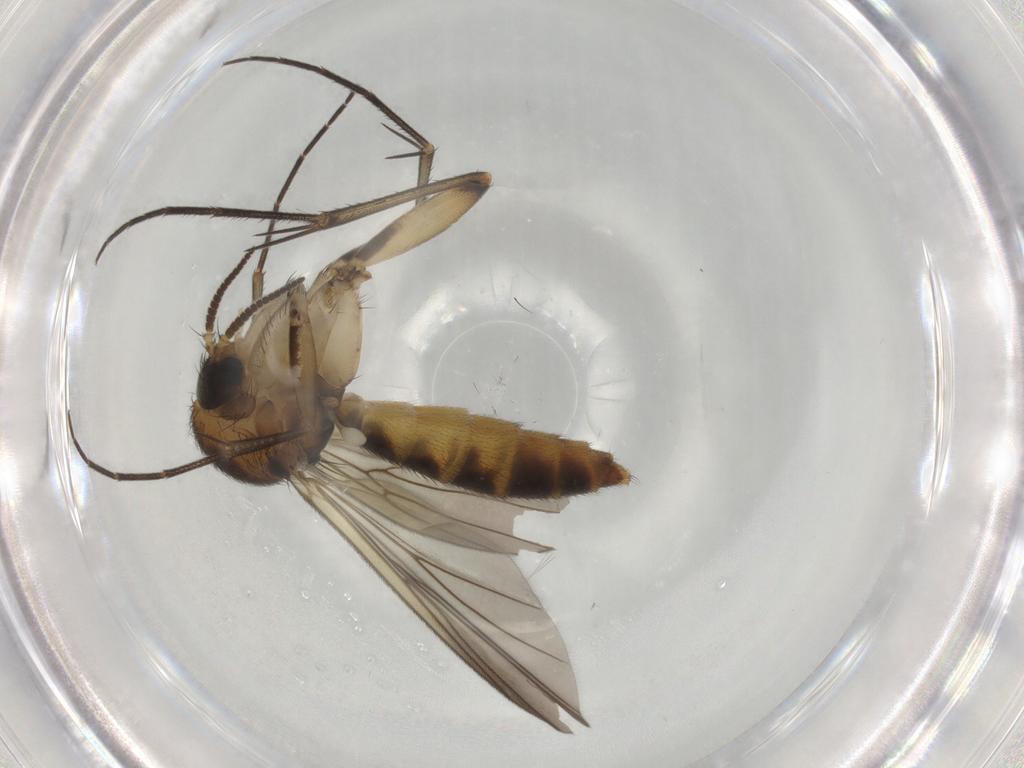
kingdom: Animalia
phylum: Arthropoda
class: Insecta
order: Diptera
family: Mycetophilidae
